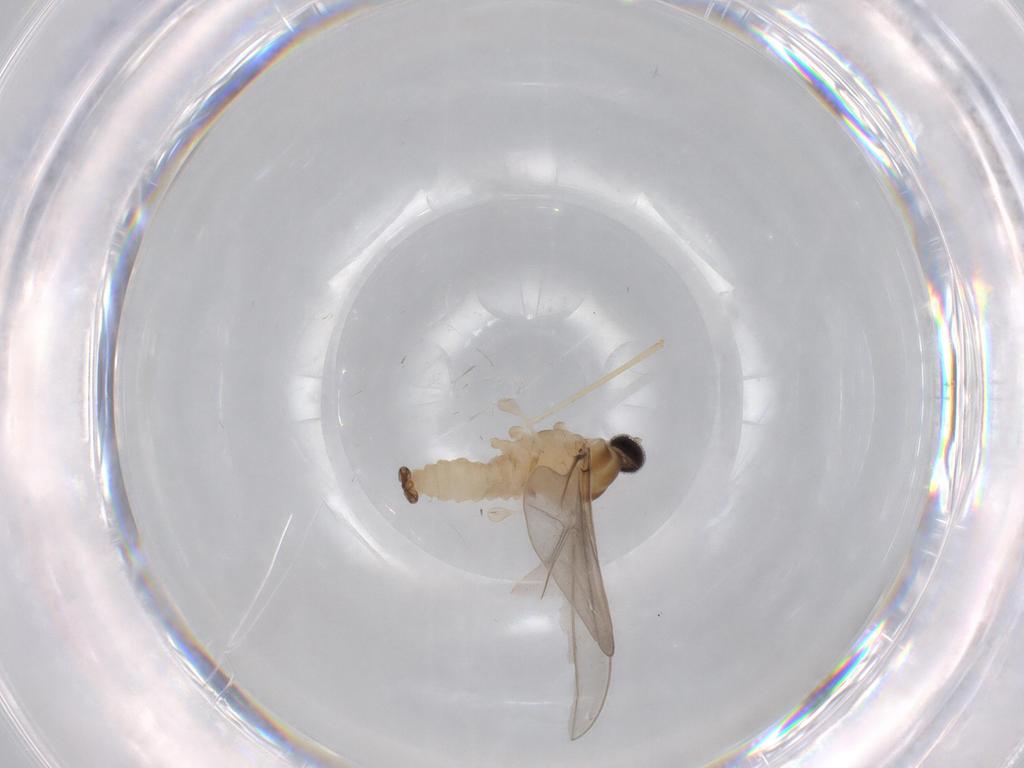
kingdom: Animalia
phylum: Arthropoda
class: Insecta
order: Diptera
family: Cecidomyiidae
